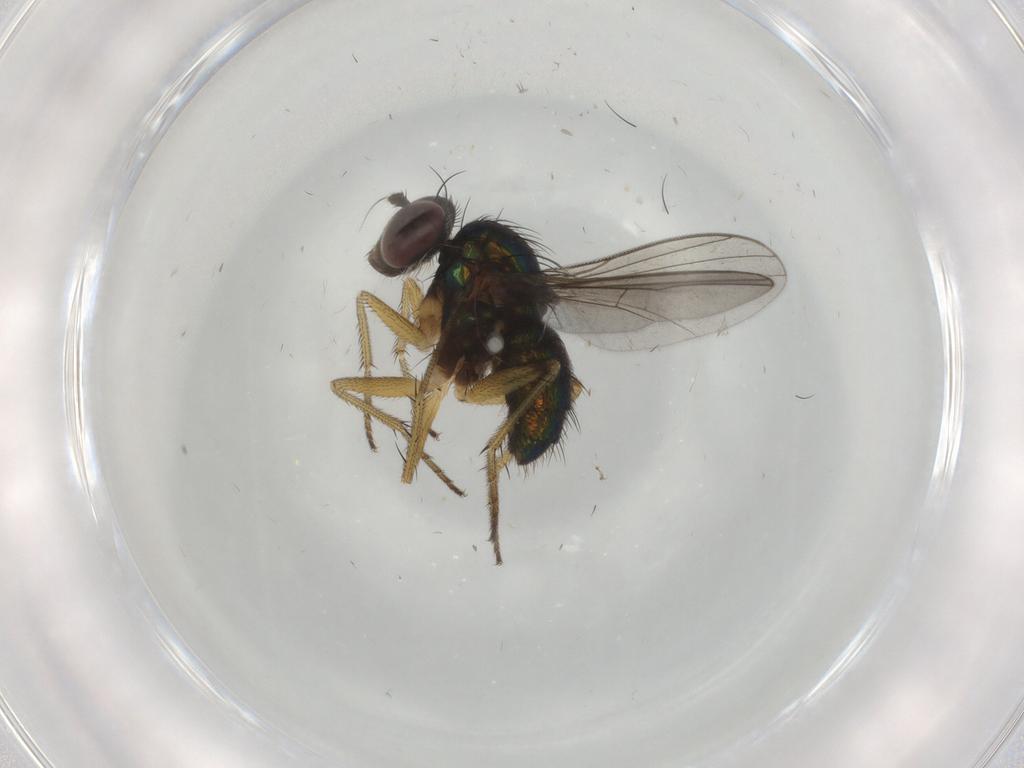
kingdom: Animalia
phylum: Arthropoda
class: Insecta
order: Diptera
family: Dolichopodidae
